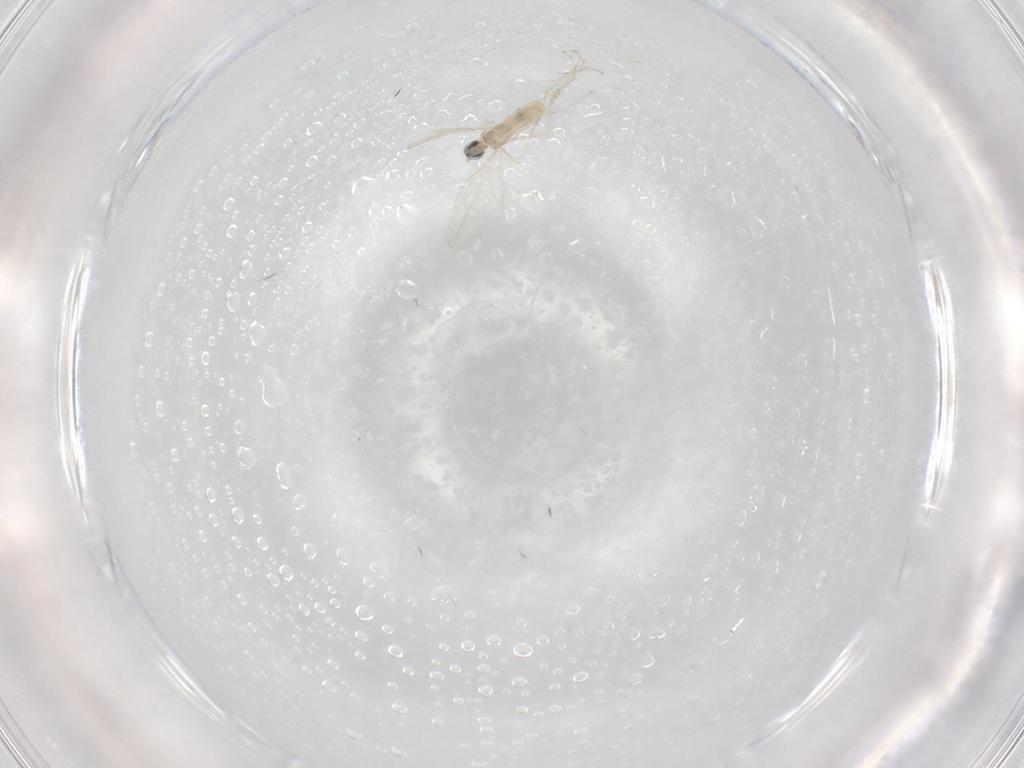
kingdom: Animalia
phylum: Arthropoda
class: Insecta
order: Diptera
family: Cecidomyiidae
